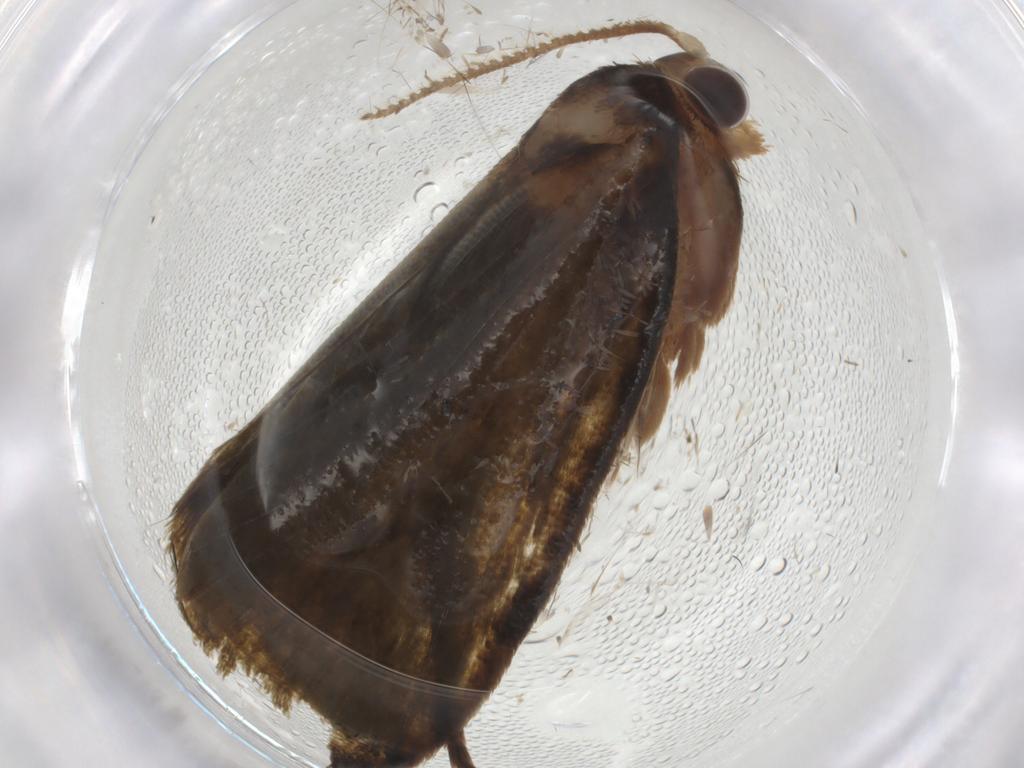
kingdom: Animalia
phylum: Arthropoda
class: Insecta
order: Lepidoptera
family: Geometridae
